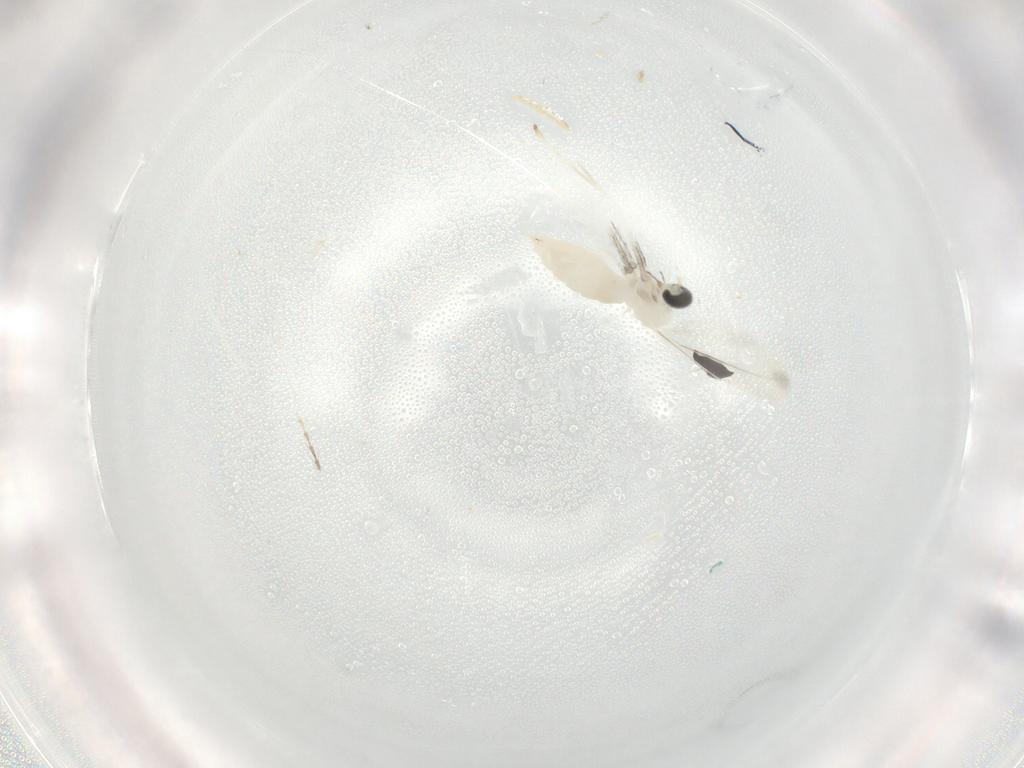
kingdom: Animalia
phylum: Arthropoda
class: Insecta
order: Diptera
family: Cecidomyiidae
